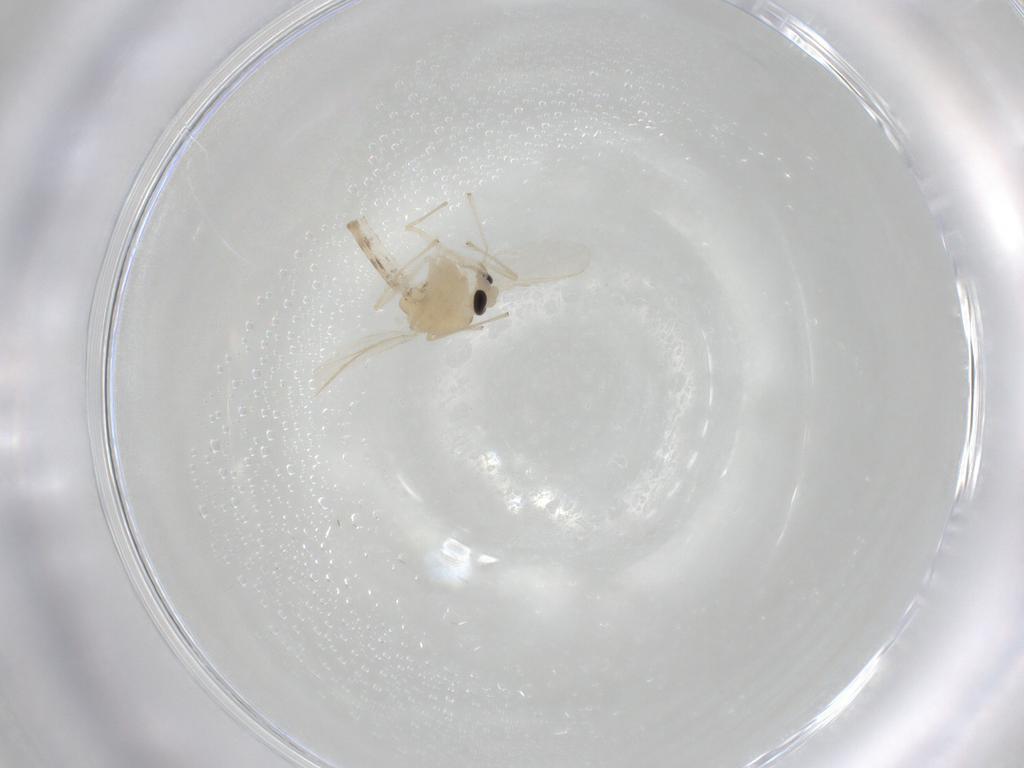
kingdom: Animalia
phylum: Arthropoda
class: Insecta
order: Diptera
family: Chironomidae
